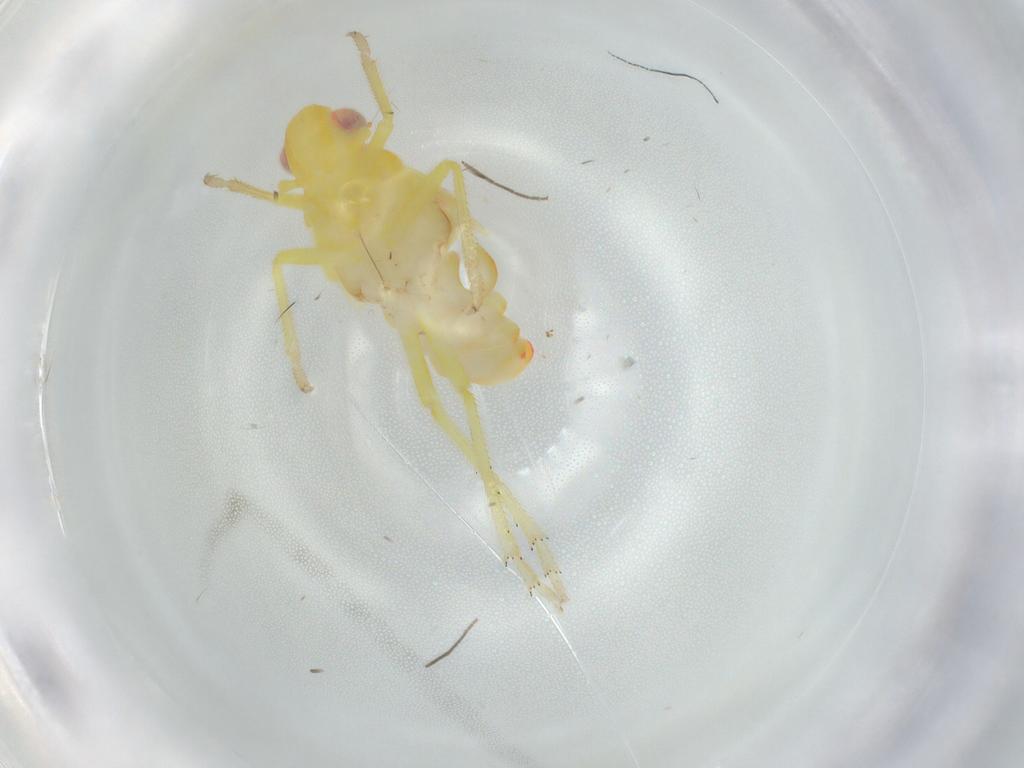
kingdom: Animalia
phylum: Arthropoda
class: Insecta
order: Hemiptera
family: Tropiduchidae
